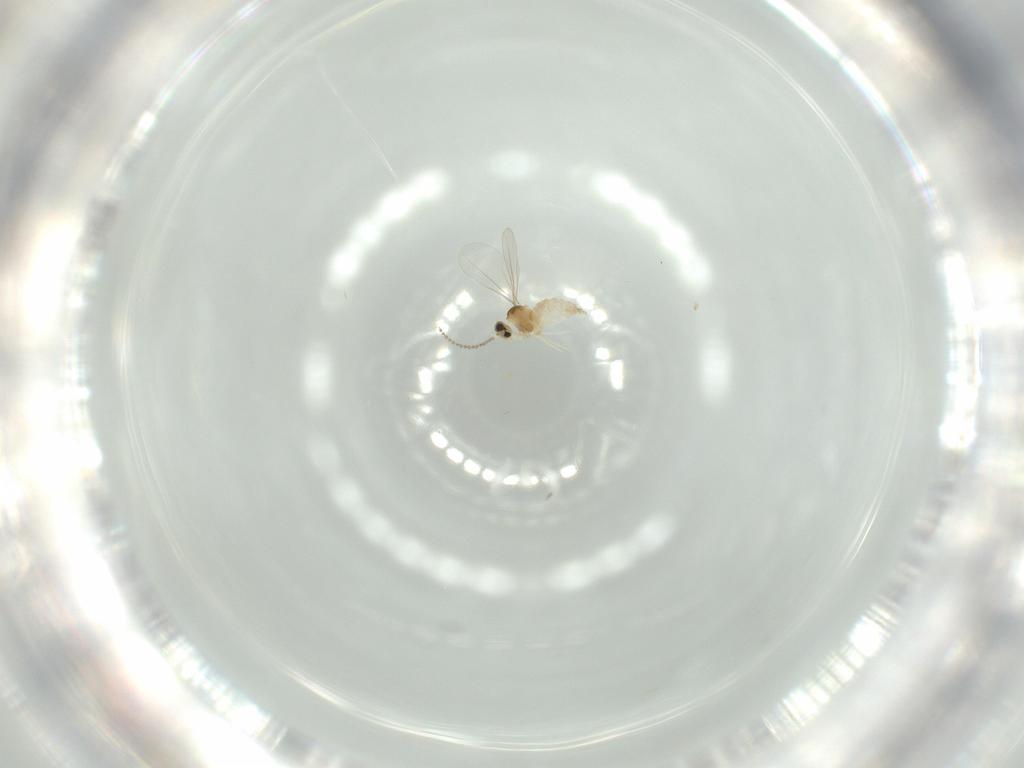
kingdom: Animalia
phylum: Arthropoda
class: Insecta
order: Diptera
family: Cecidomyiidae
